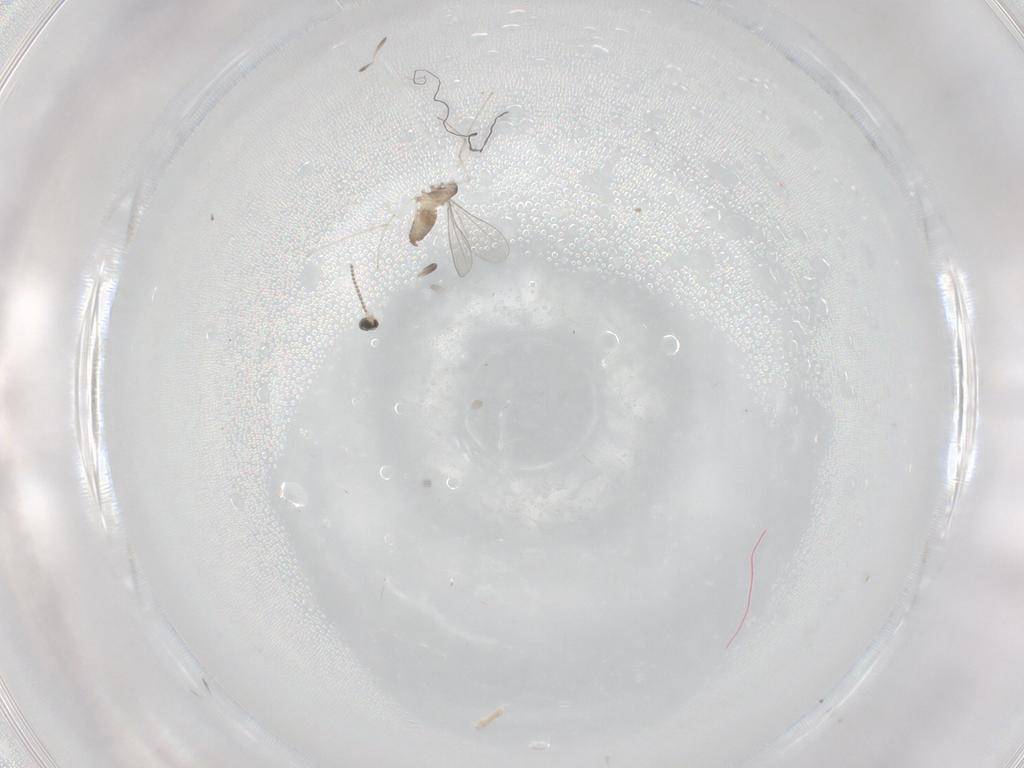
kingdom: Animalia
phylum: Arthropoda
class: Insecta
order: Diptera
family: Cecidomyiidae
